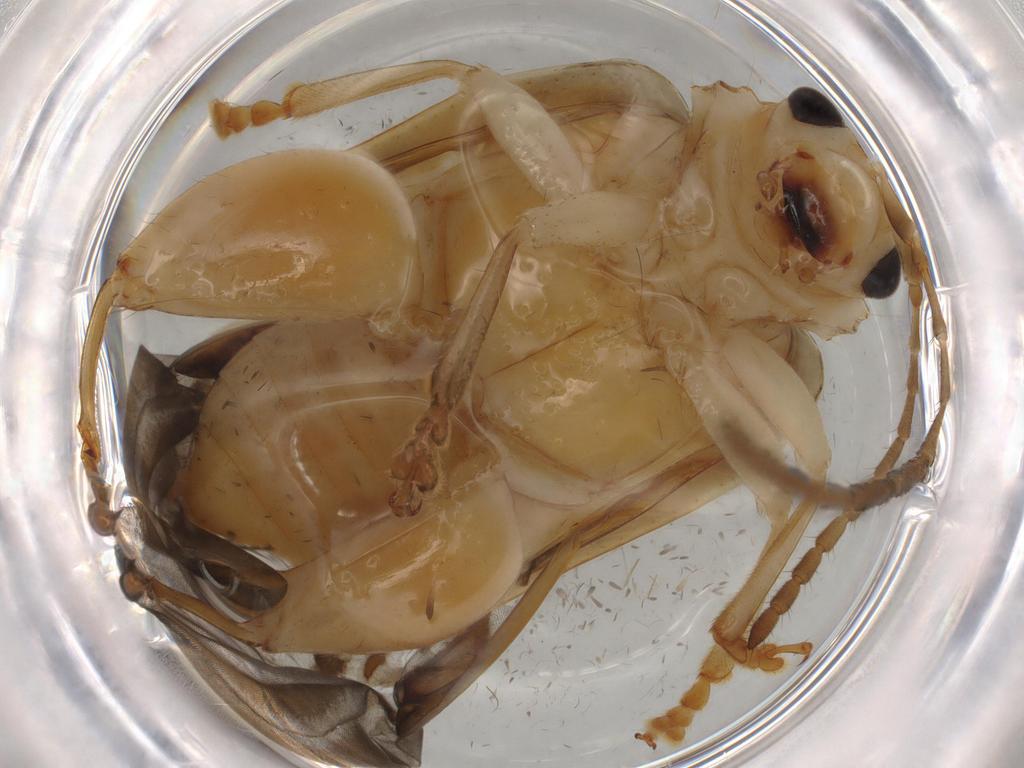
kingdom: Animalia
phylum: Arthropoda
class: Insecta
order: Coleoptera
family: Chrysomelidae
